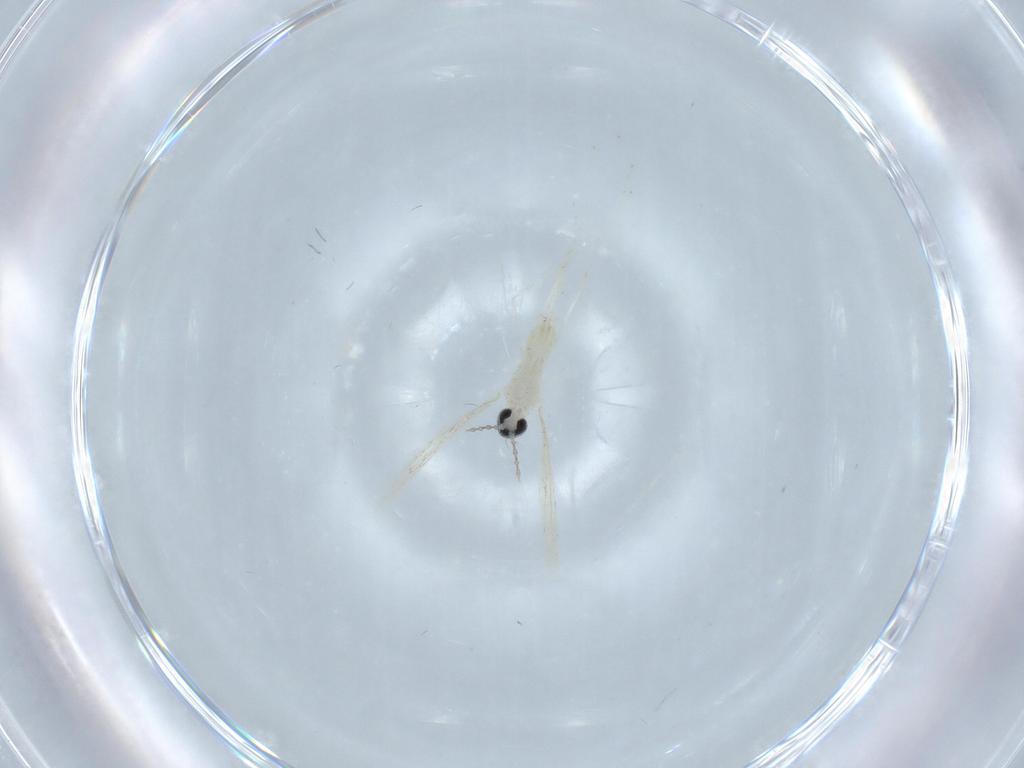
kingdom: Animalia
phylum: Arthropoda
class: Insecta
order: Diptera
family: Cecidomyiidae
